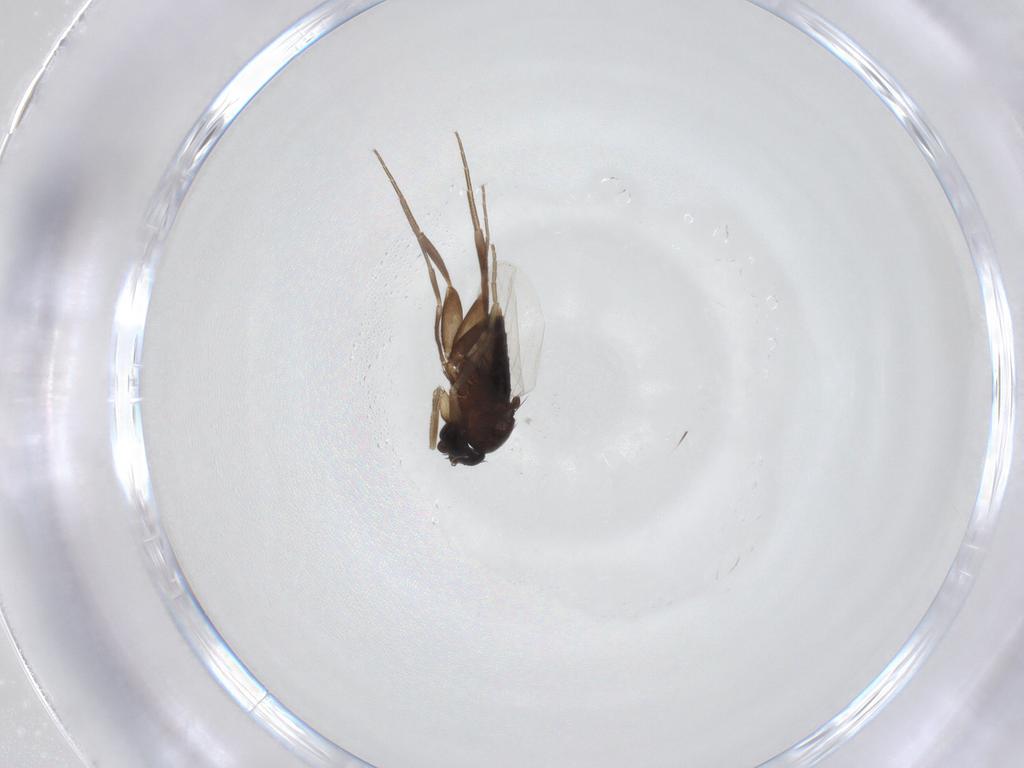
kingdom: Animalia
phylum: Arthropoda
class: Insecta
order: Diptera
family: Phoridae
